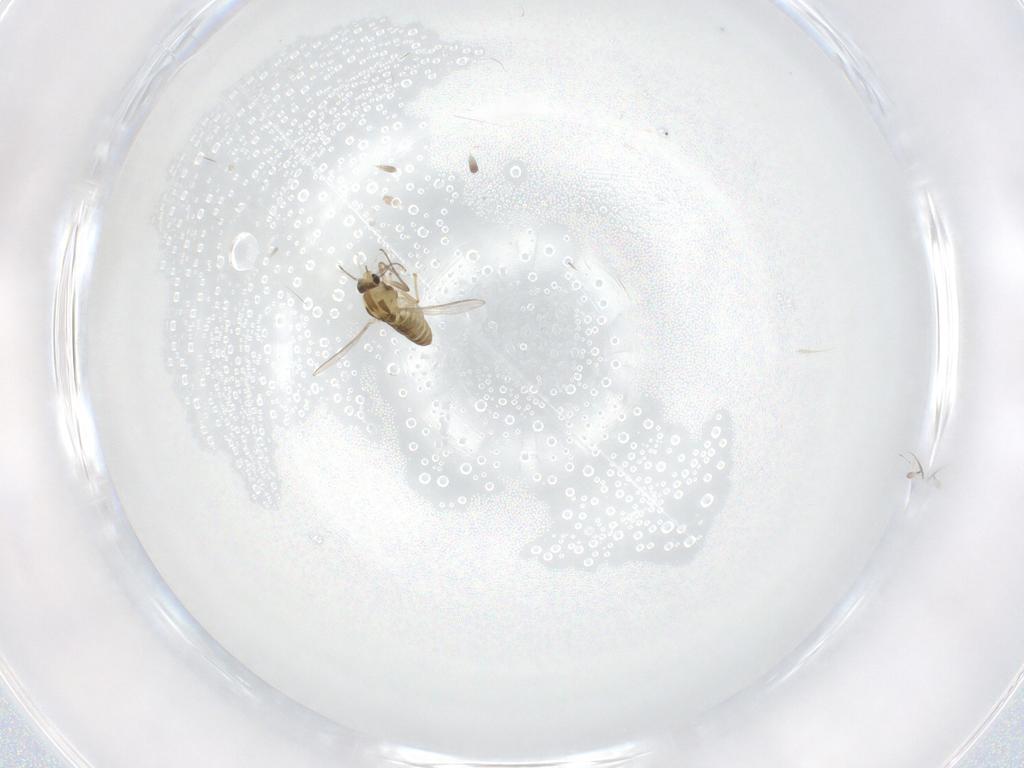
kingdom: Animalia
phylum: Arthropoda
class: Insecta
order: Diptera
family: Chironomidae
